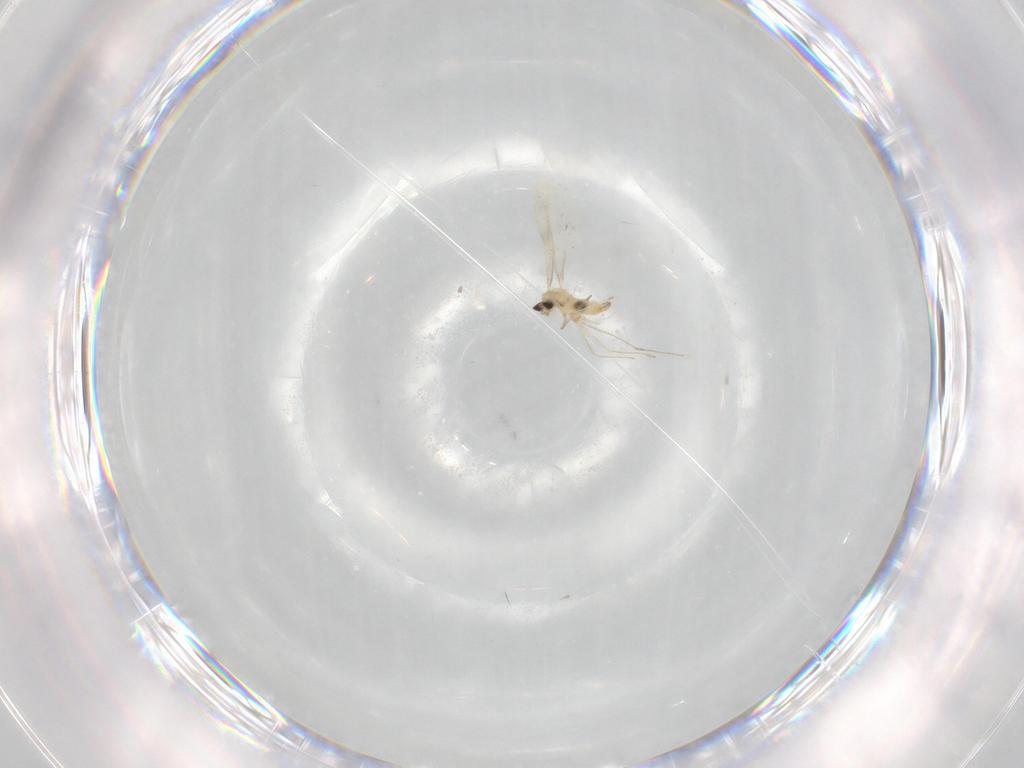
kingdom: Animalia
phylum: Arthropoda
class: Insecta
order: Diptera
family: Cecidomyiidae
